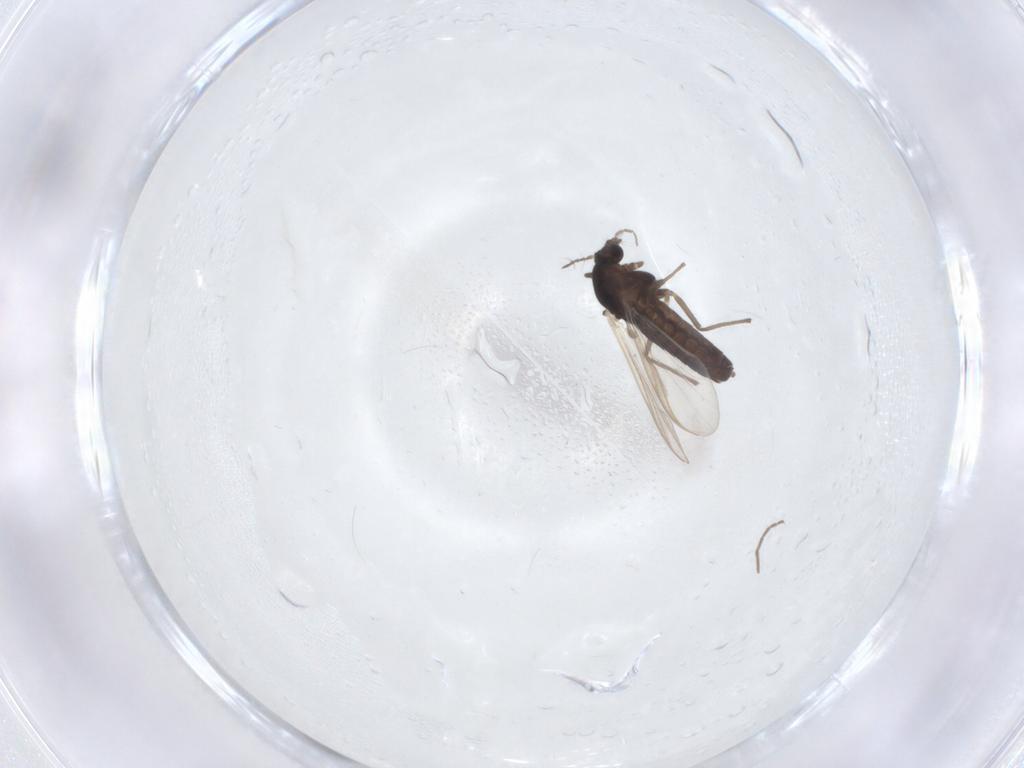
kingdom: Animalia
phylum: Arthropoda
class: Insecta
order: Diptera
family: Chironomidae
